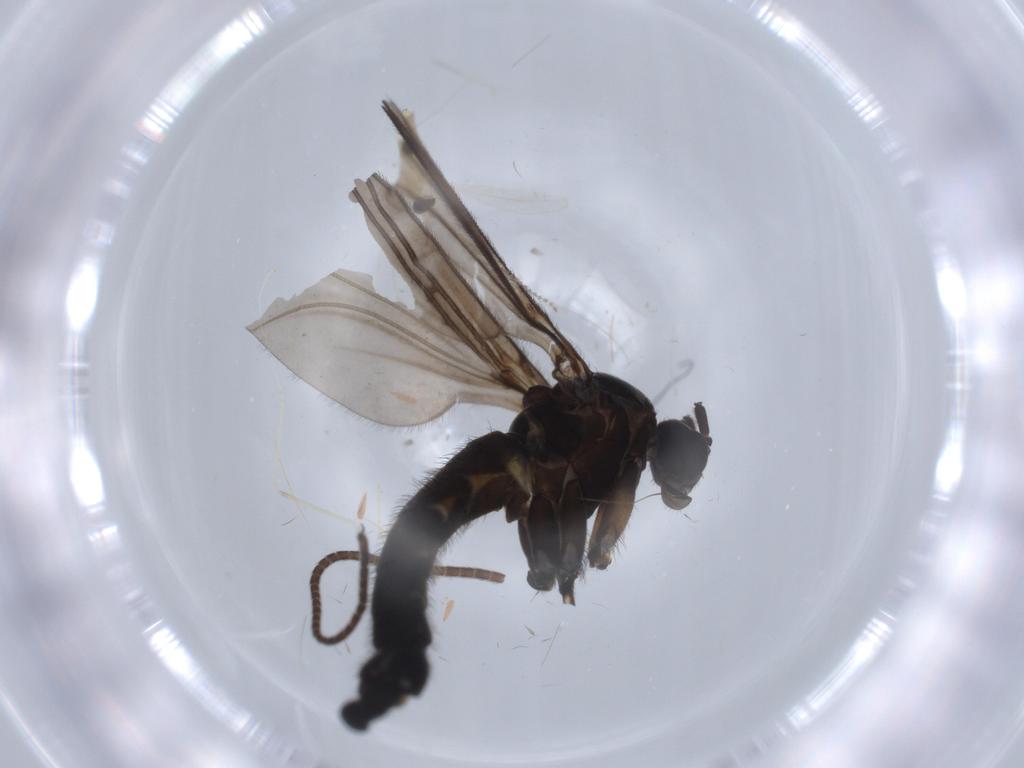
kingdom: Animalia
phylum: Arthropoda
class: Insecta
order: Diptera
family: Sciaridae
